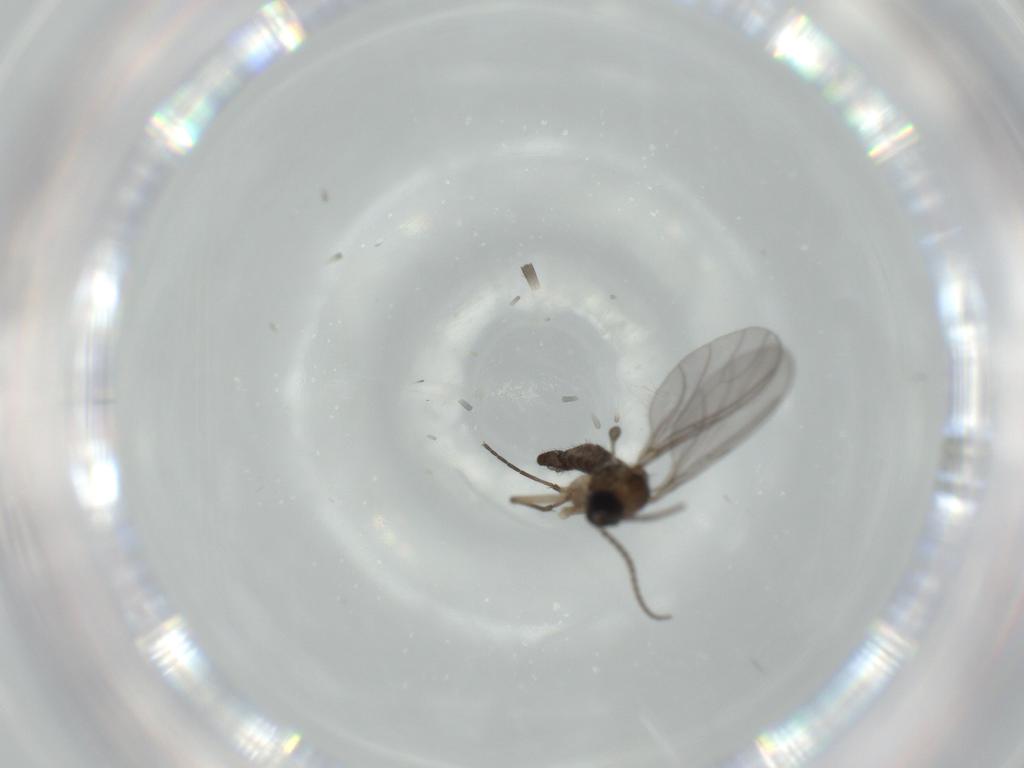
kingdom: Animalia
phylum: Arthropoda
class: Insecta
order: Diptera
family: Sciaridae
